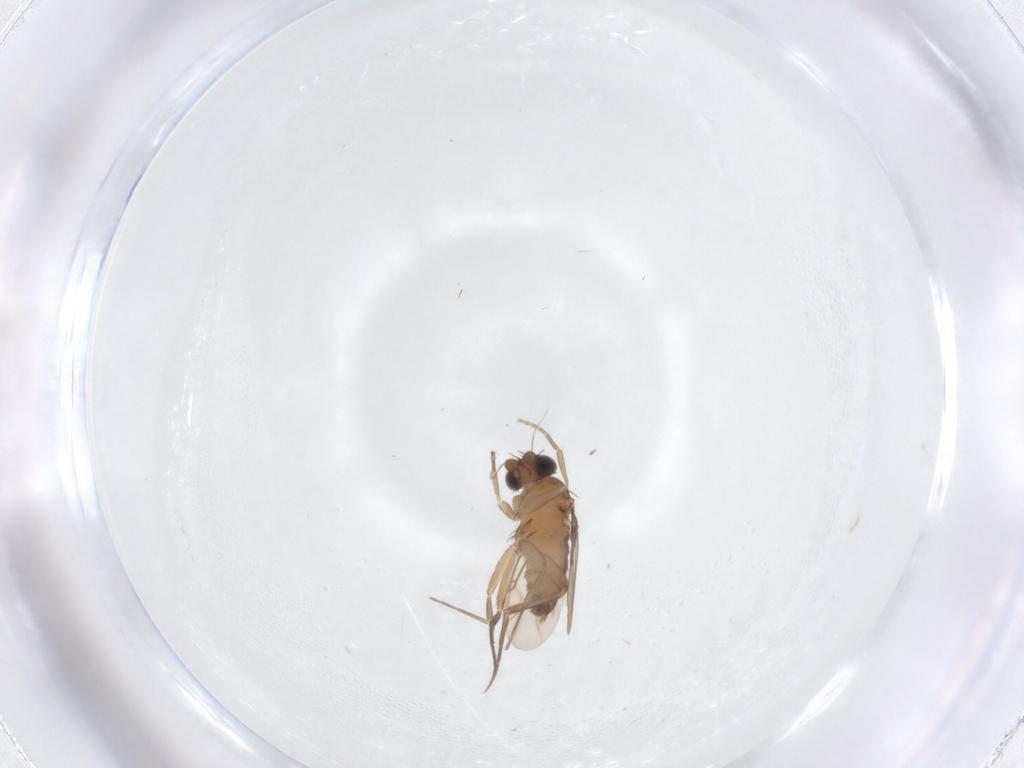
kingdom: Animalia
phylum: Arthropoda
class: Insecta
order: Diptera
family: Phoridae
